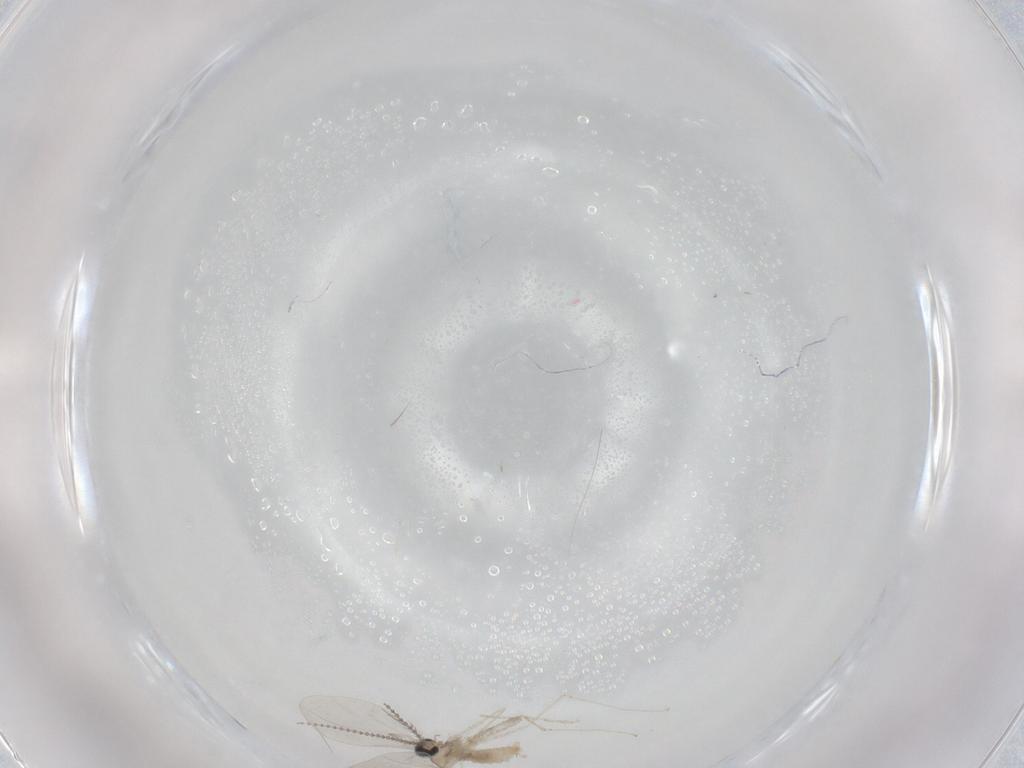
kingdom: Animalia
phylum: Arthropoda
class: Insecta
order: Diptera
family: Cecidomyiidae
